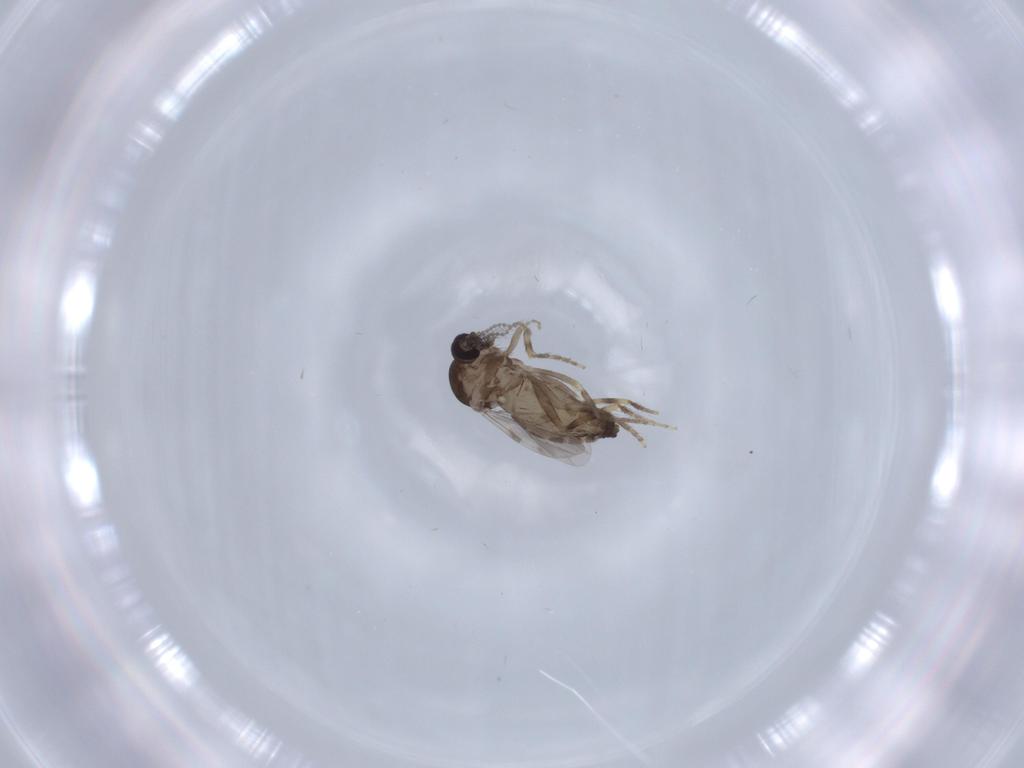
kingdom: Animalia
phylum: Arthropoda
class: Insecta
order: Diptera
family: Ceratopogonidae
